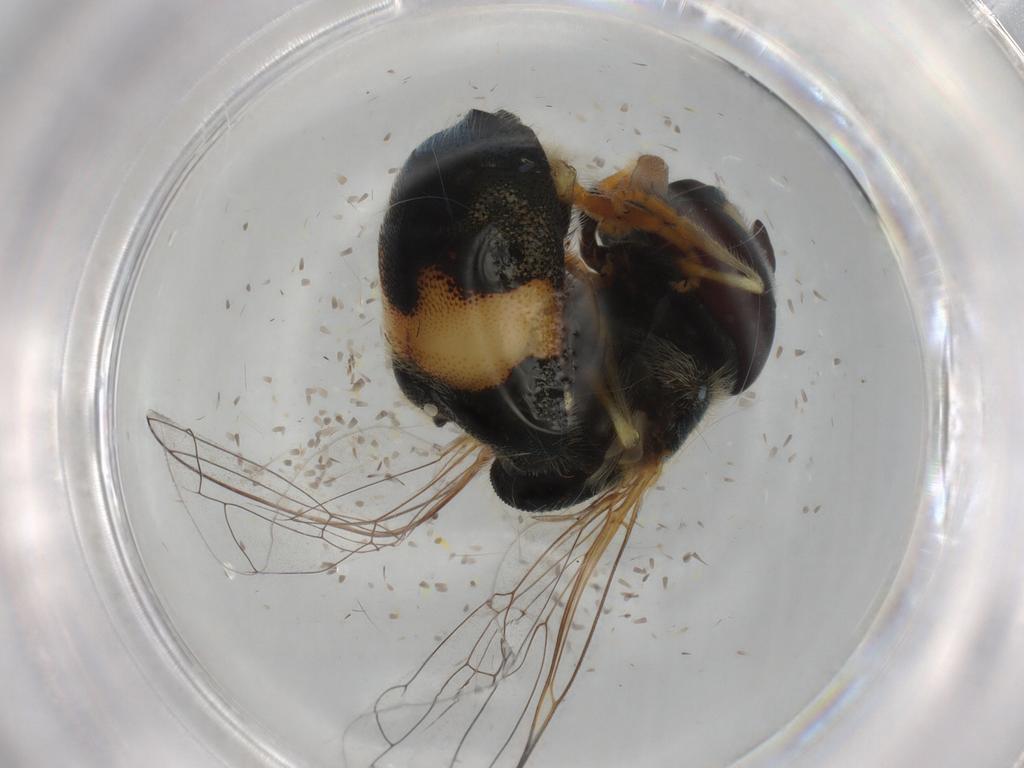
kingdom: Animalia
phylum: Arthropoda
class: Insecta
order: Diptera
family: Sciaridae
